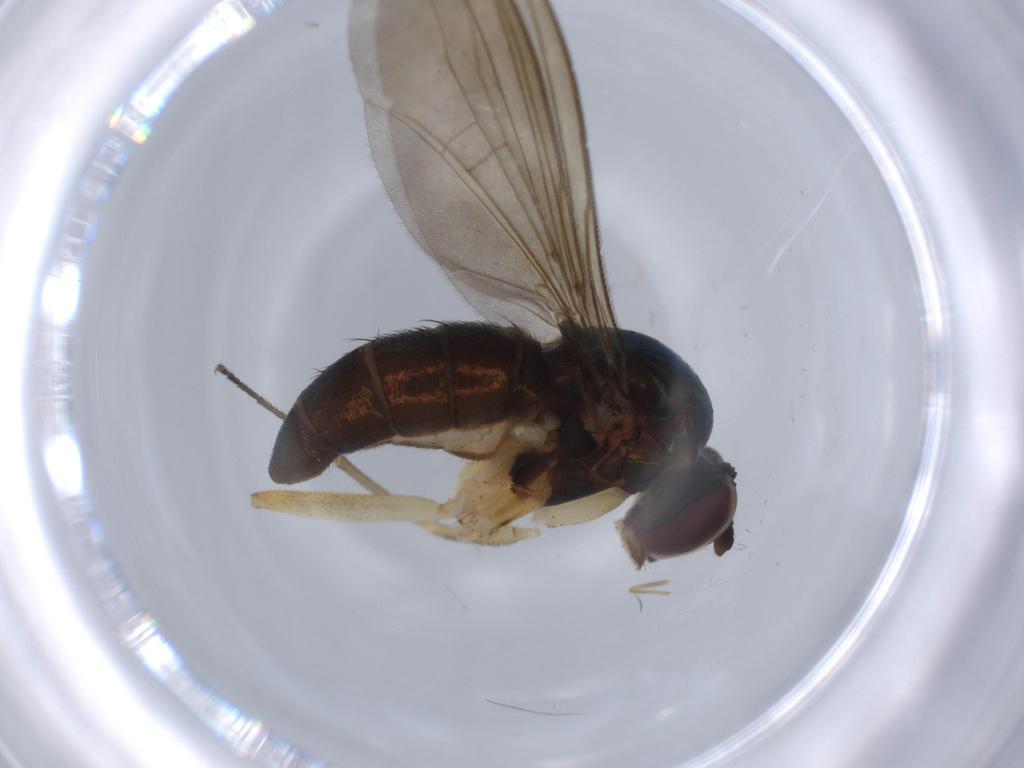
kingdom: Animalia
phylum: Arthropoda
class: Insecta
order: Diptera
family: Dolichopodidae
